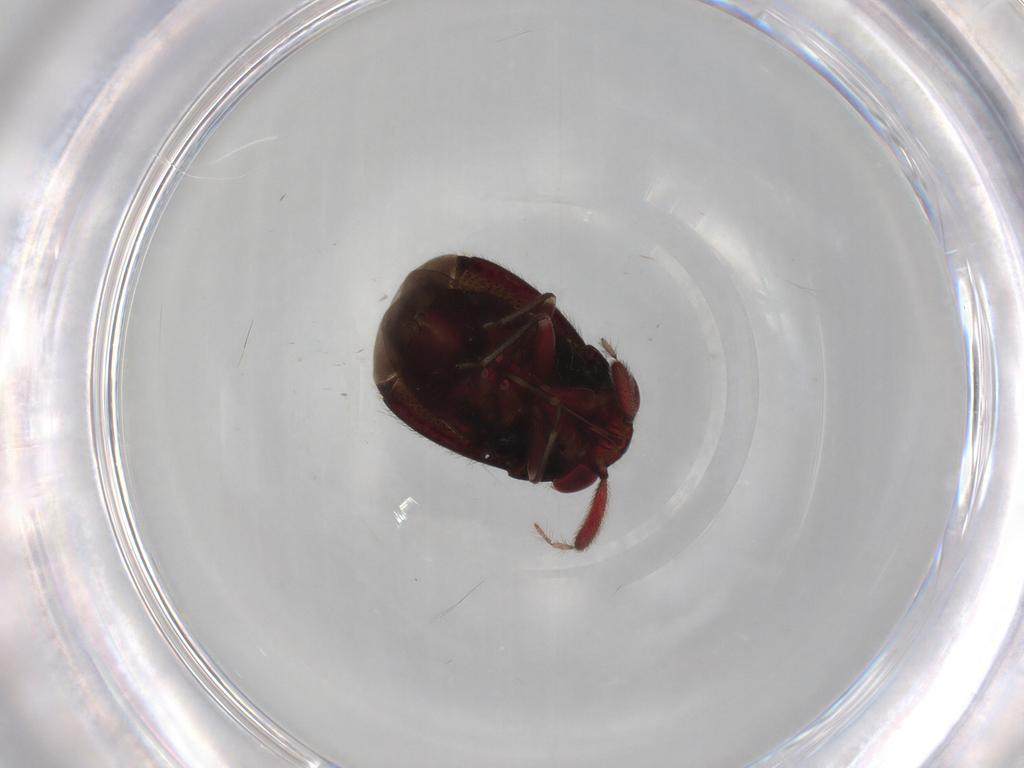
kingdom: Animalia
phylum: Arthropoda
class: Insecta
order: Hemiptera
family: Miridae
